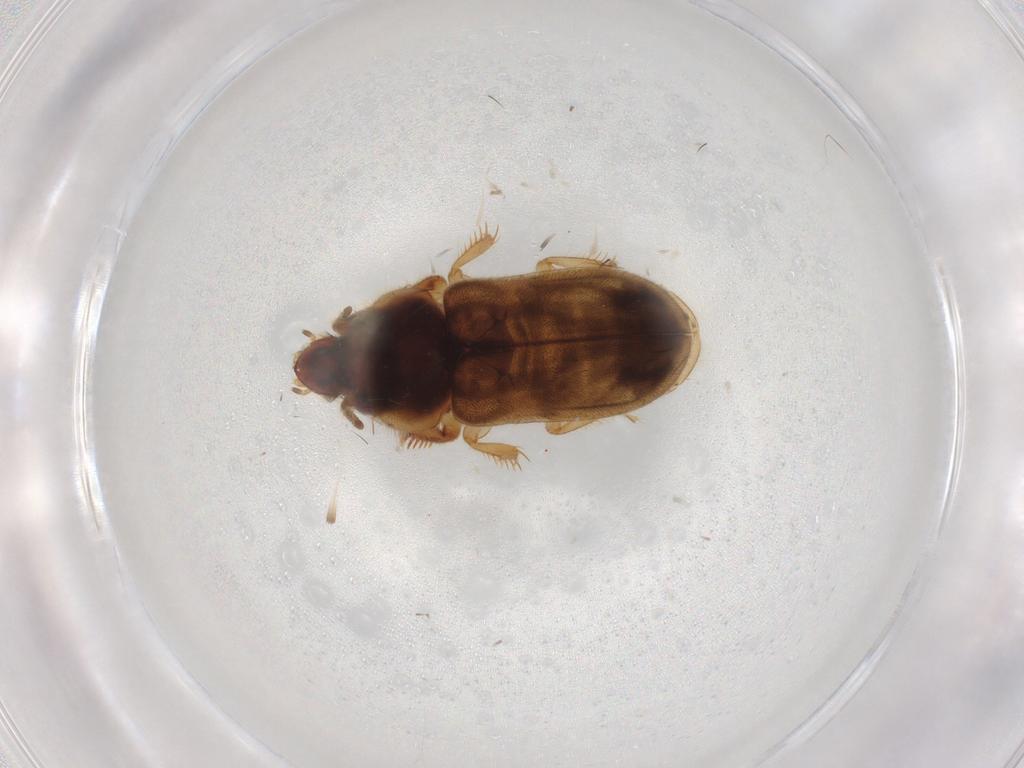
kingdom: Animalia
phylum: Arthropoda
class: Insecta
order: Coleoptera
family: Heteroceridae
